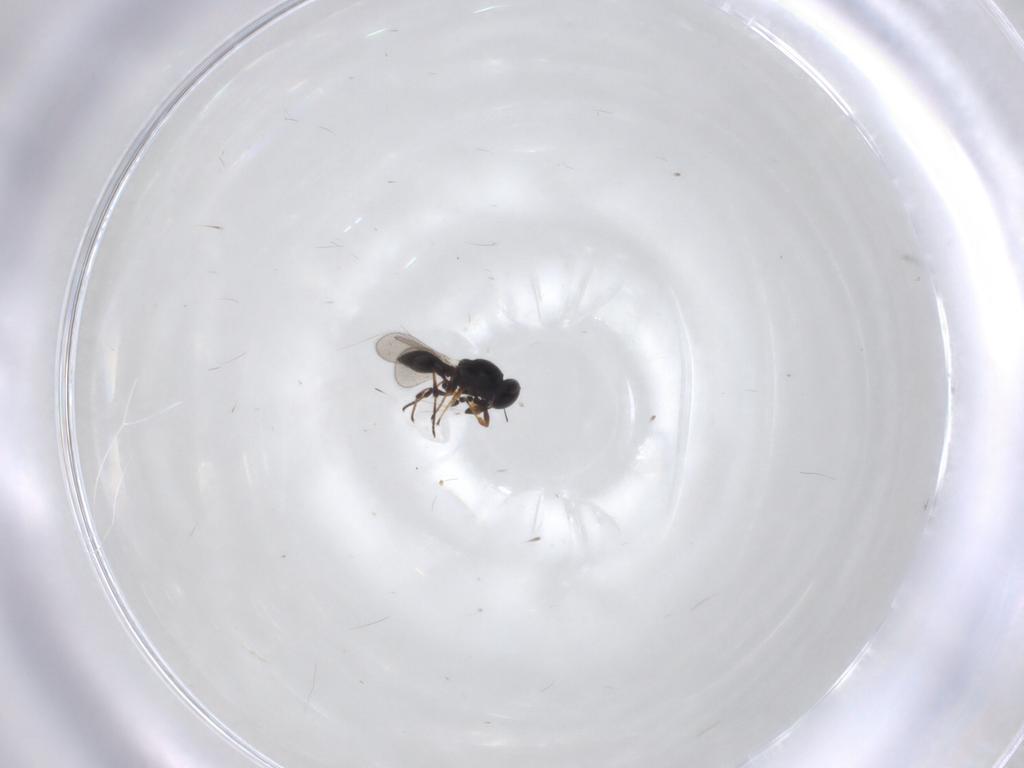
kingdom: Animalia
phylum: Arthropoda
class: Insecta
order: Hymenoptera
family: Platygastridae
